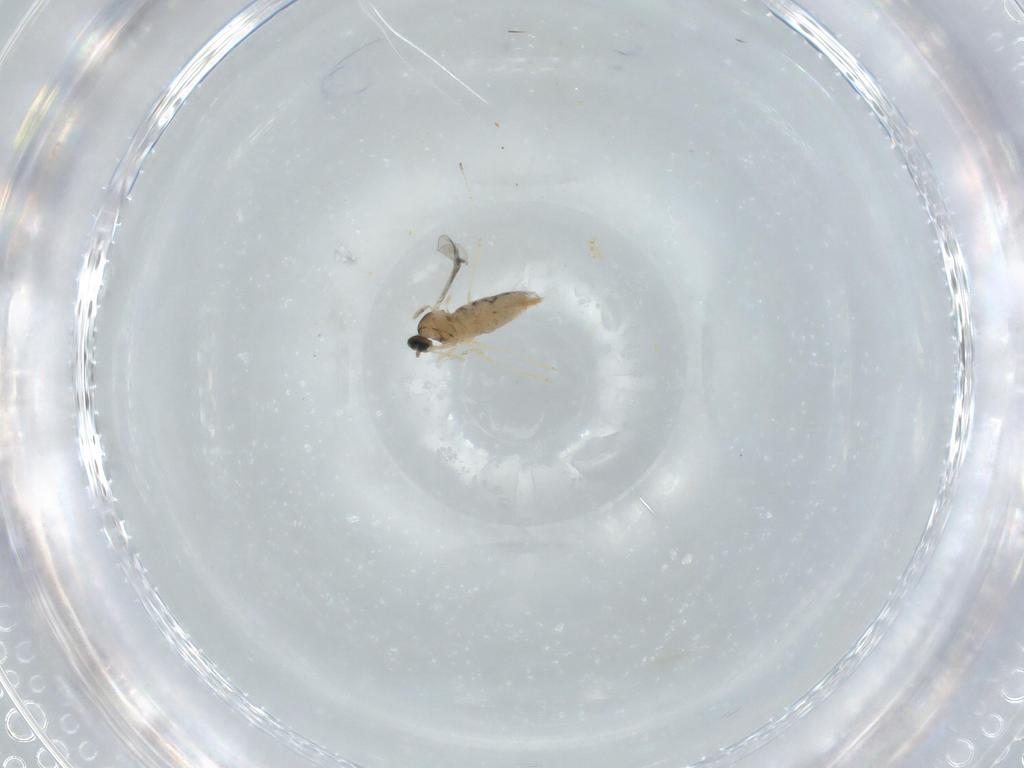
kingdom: Animalia
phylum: Arthropoda
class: Insecta
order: Diptera
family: Cecidomyiidae
